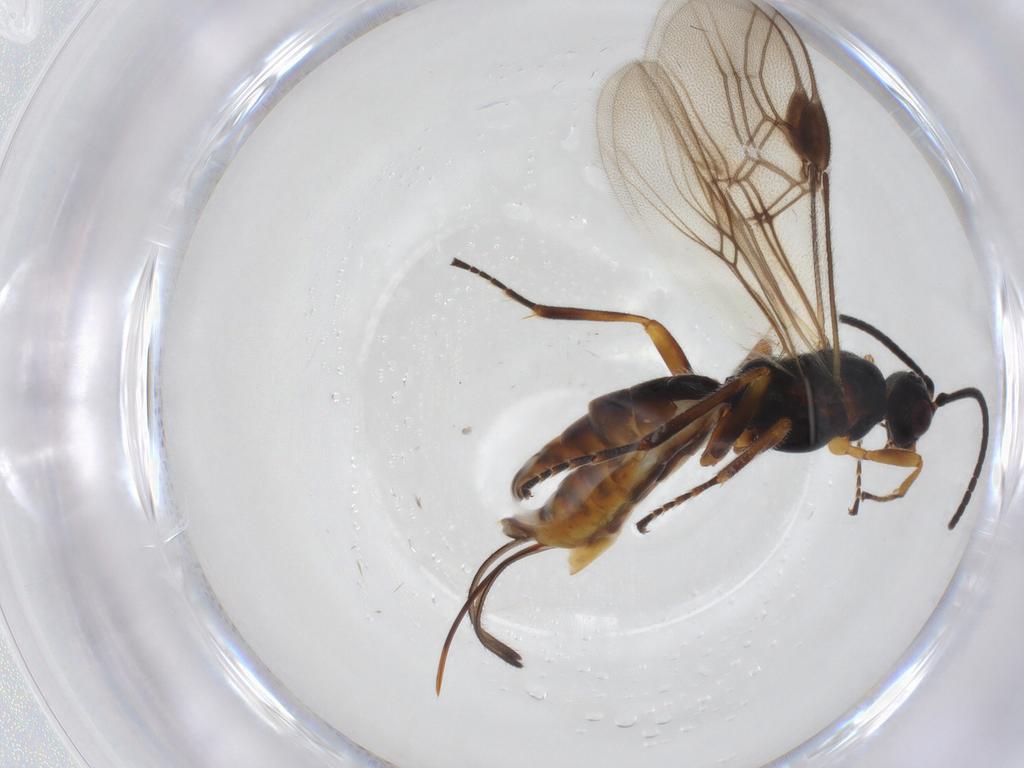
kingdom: Animalia
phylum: Arthropoda
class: Insecta
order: Hymenoptera
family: Braconidae
